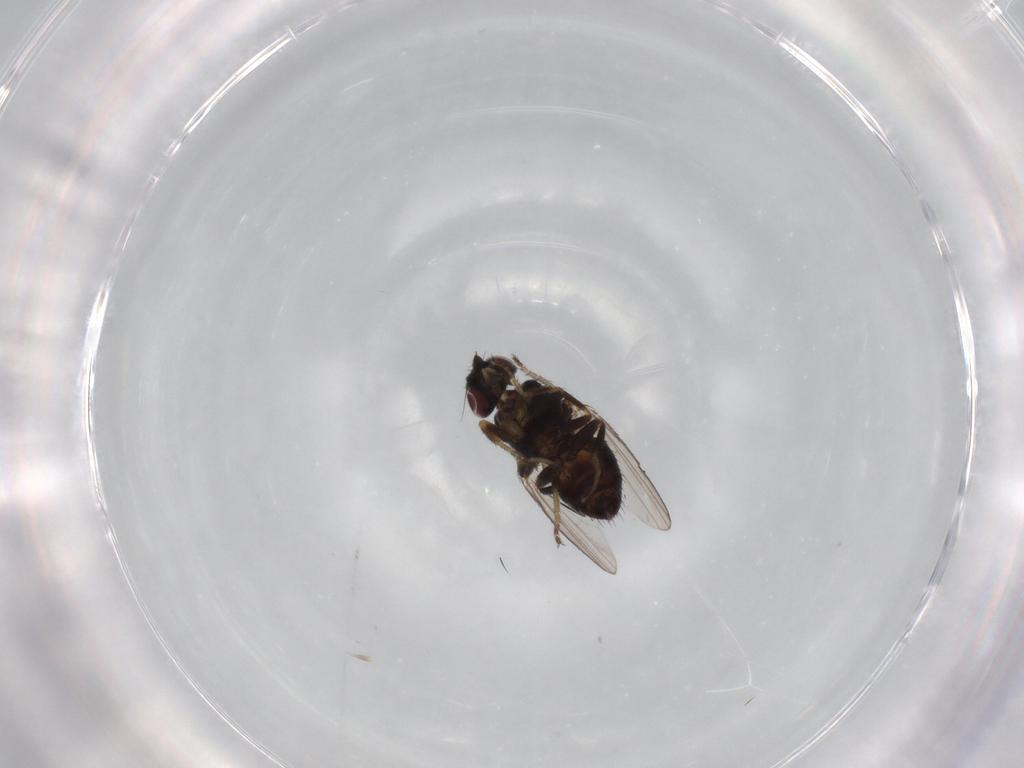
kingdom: Animalia
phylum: Arthropoda
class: Insecta
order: Diptera
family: Milichiidae
